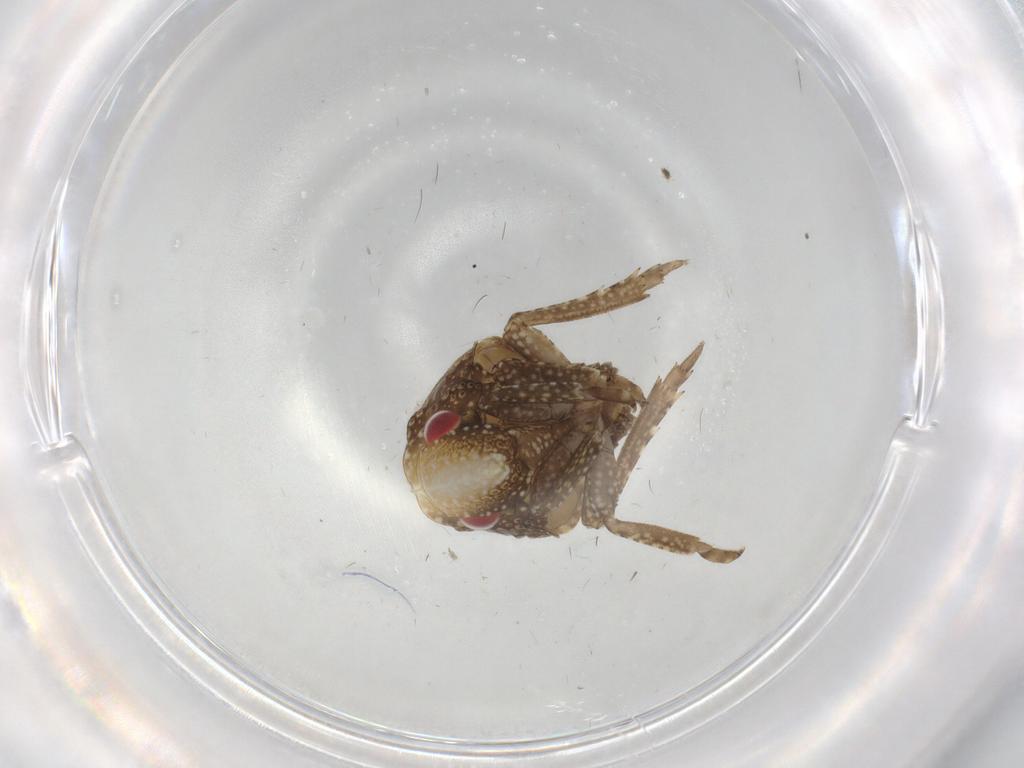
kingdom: Animalia
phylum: Arthropoda
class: Insecta
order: Hemiptera
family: Acanaloniidae
